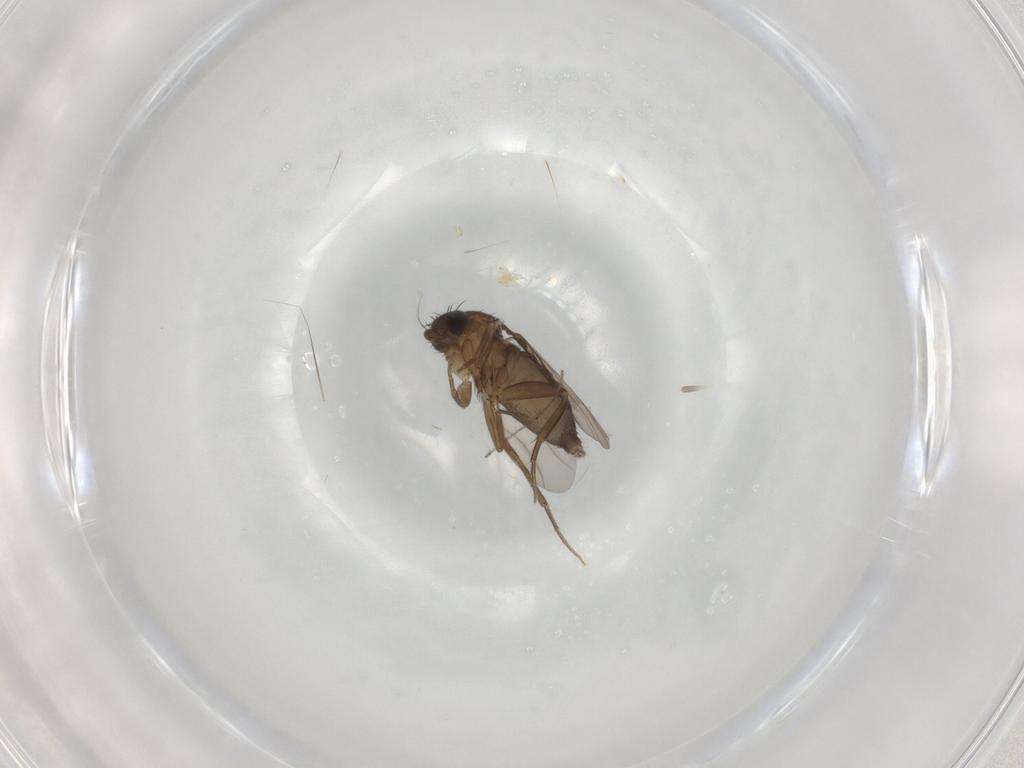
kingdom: Animalia
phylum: Arthropoda
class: Insecta
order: Diptera
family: Phoridae
